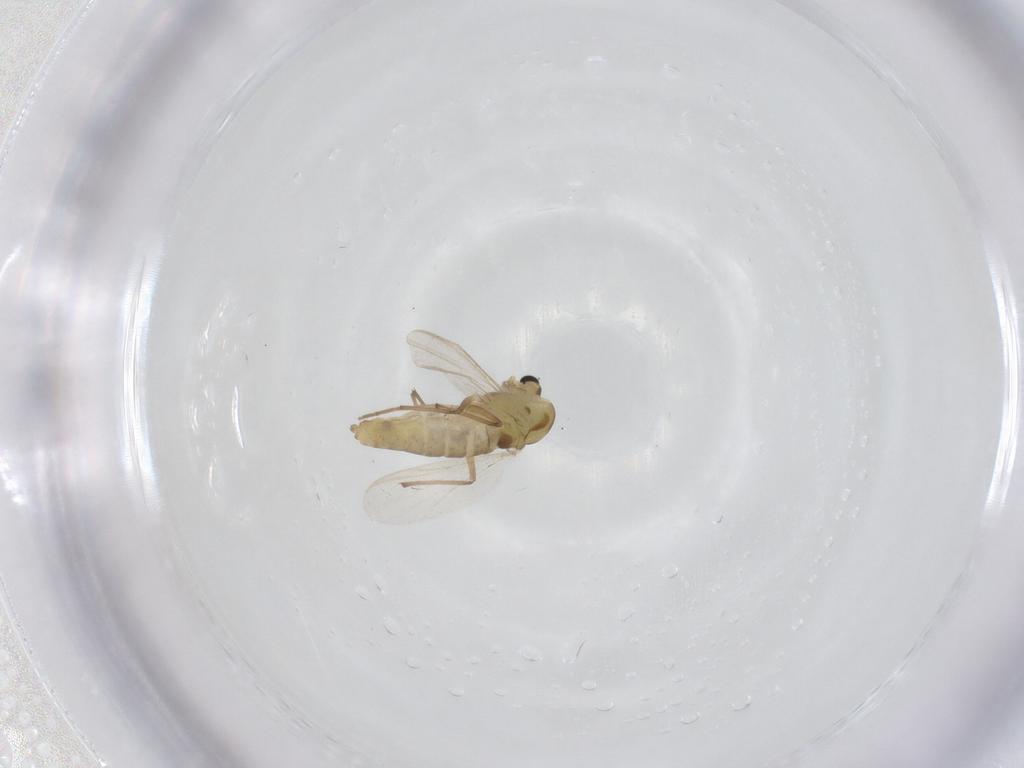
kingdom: Animalia
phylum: Arthropoda
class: Insecta
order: Diptera
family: Chironomidae
